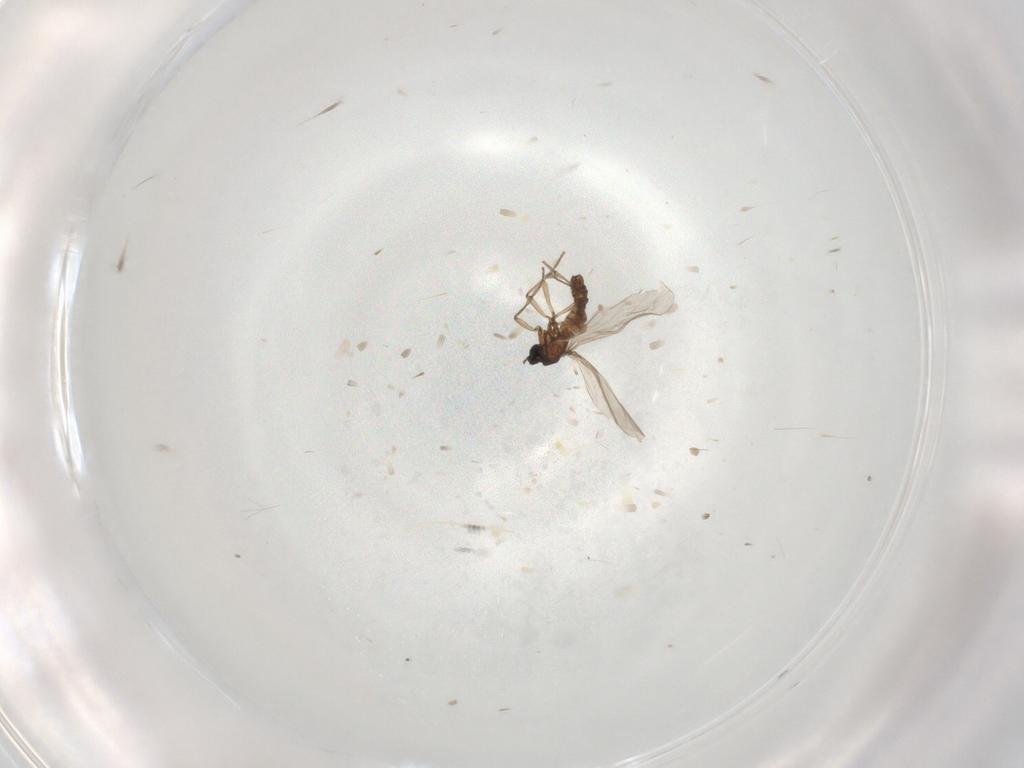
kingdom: Animalia
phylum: Arthropoda
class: Insecta
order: Diptera
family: Sciaridae
